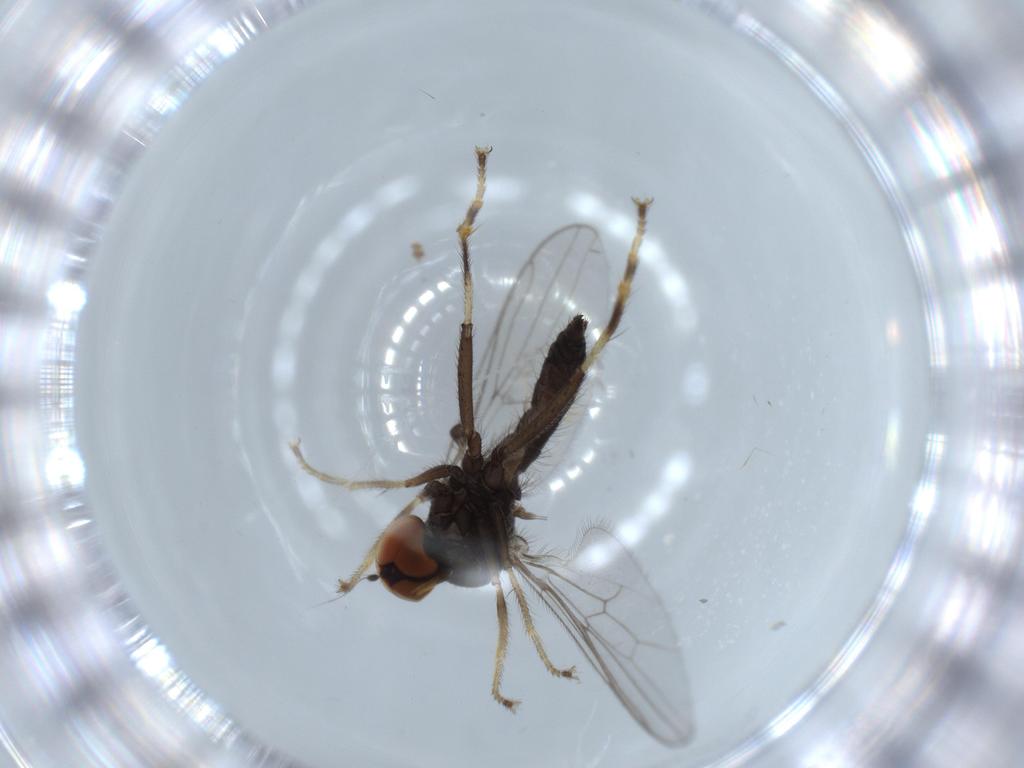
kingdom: Animalia
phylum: Arthropoda
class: Insecta
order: Diptera
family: Hybotidae
